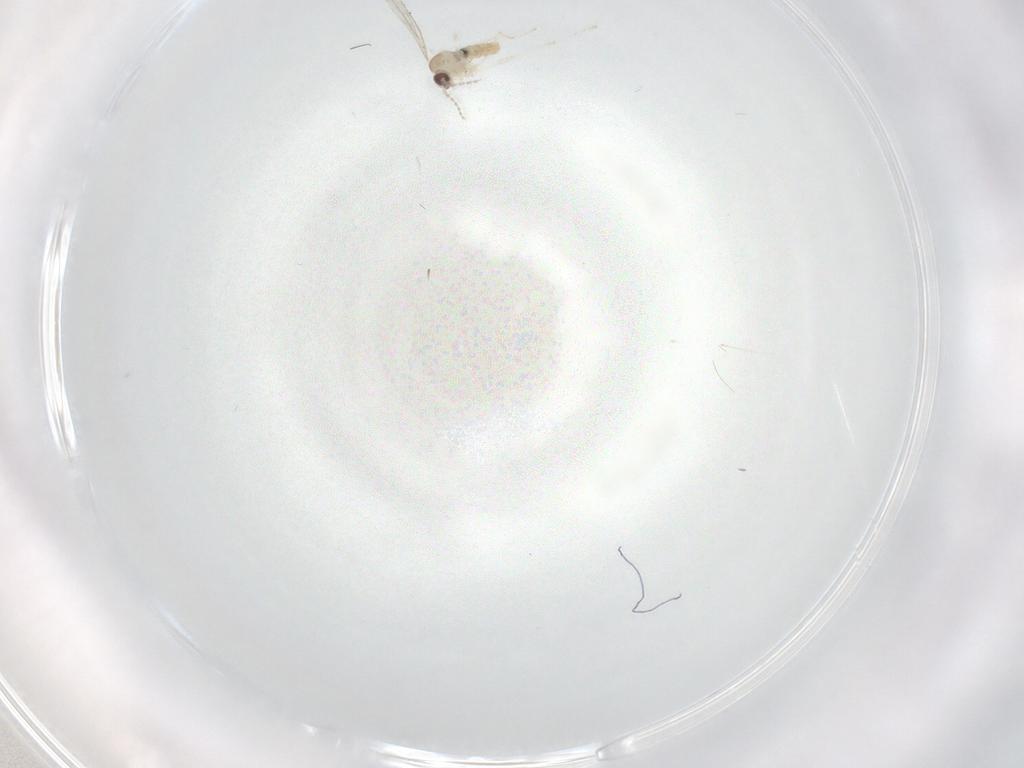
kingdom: Animalia
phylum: Arthropoda
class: Insecta
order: Diptera
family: Cecidomyiidae
